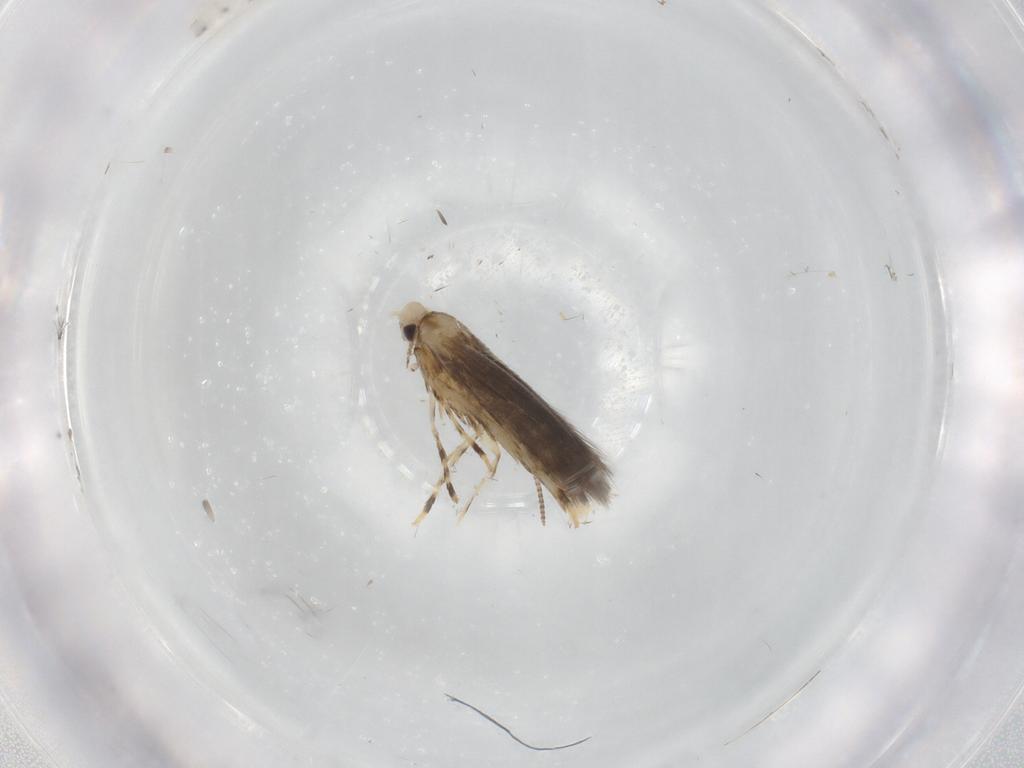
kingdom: Animalia
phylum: Arthropoda
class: Insecta
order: Lepidoptera
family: Gracillariidae
